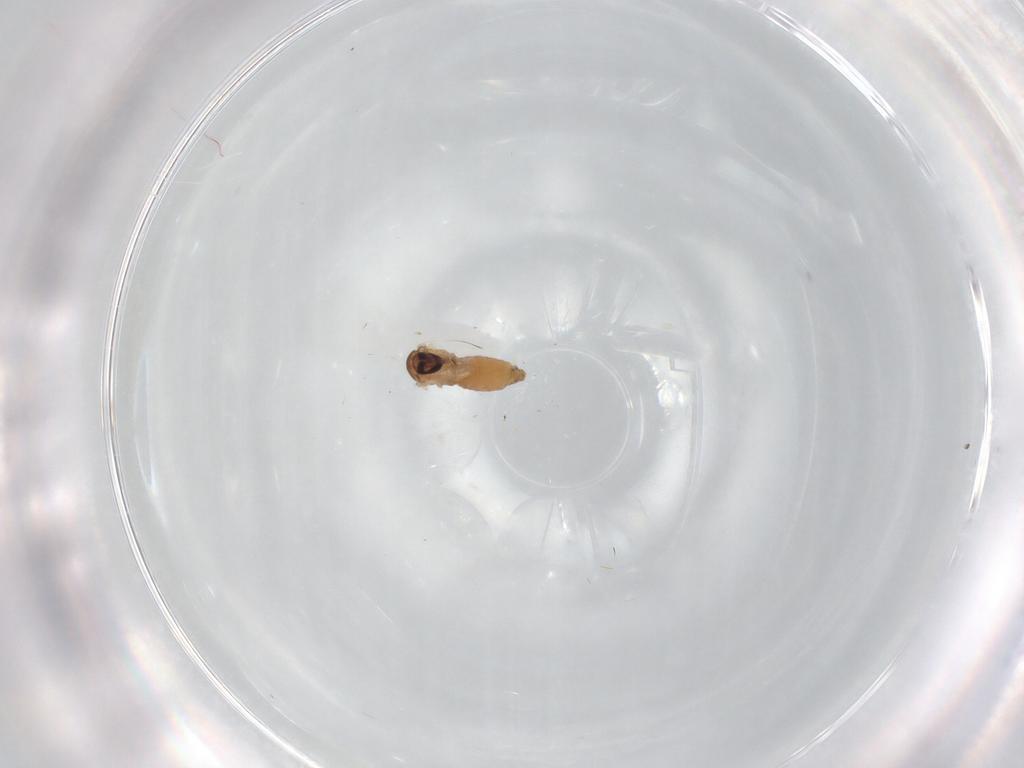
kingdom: Animalia
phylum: Arthropoda
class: Insecta
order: Diptera
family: Psychodidae
